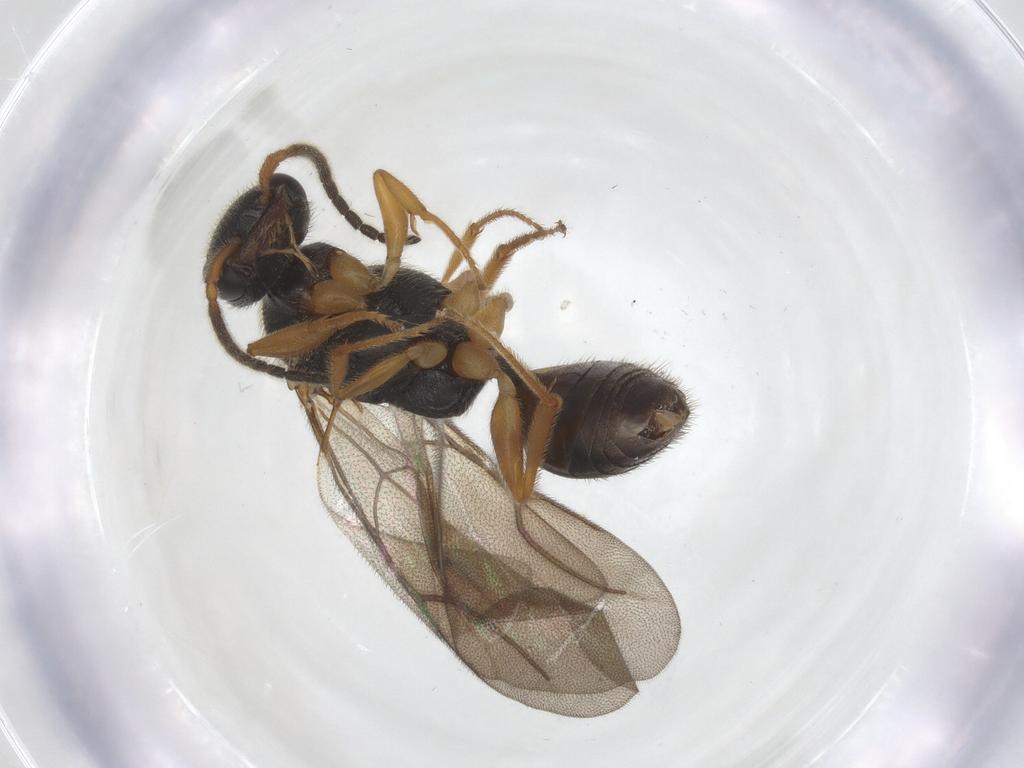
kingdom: Animalia
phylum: Arthropoda
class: Insecta
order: Hymenoptera
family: Bethylidae
